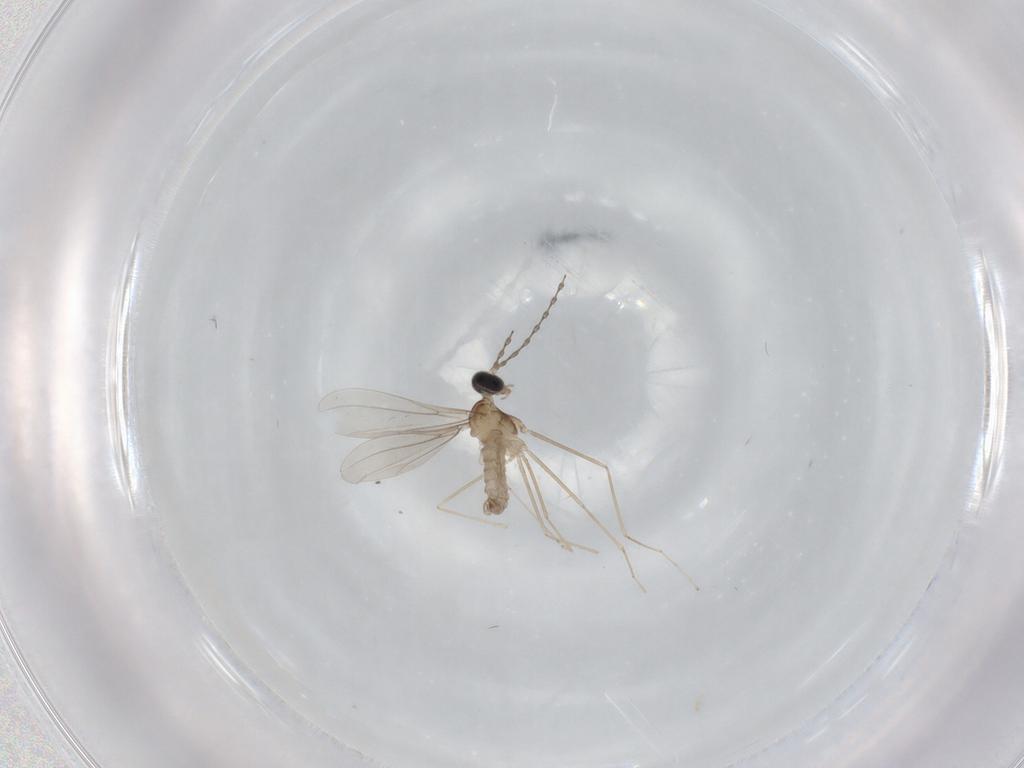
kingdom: Animalia
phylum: Arthropoda
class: Insecta
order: Diptera
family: Cecidomyiidae
